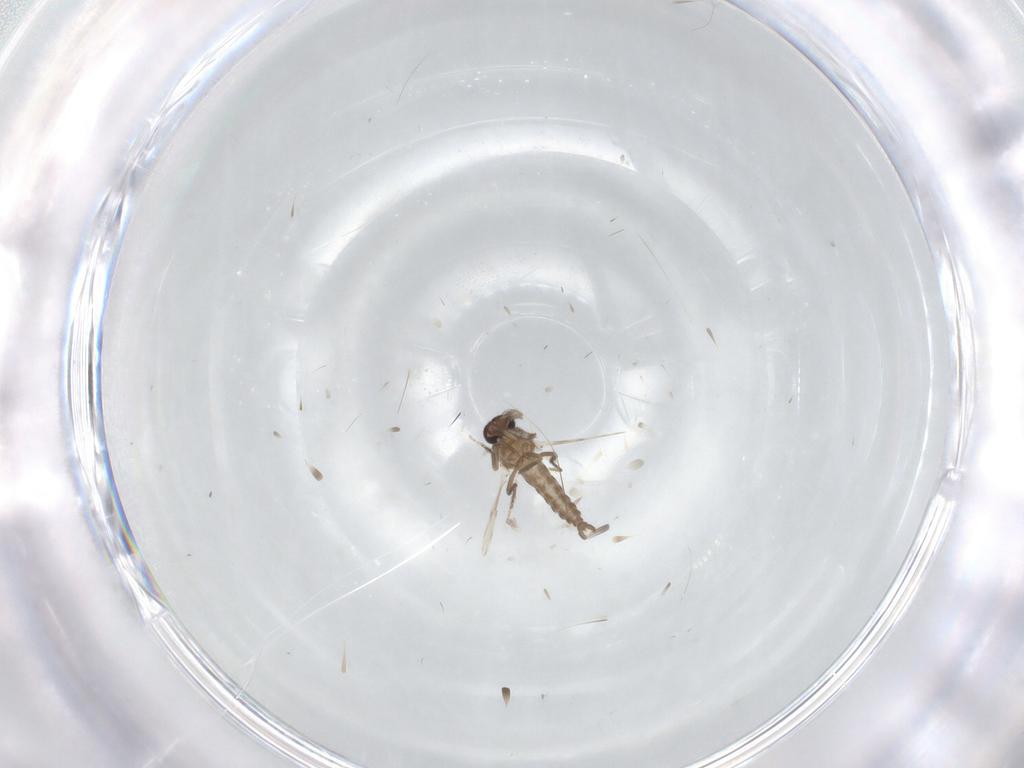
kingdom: Animalia
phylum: Arthropoda
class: Insecta
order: Diptera
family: Ceratopogonidae
